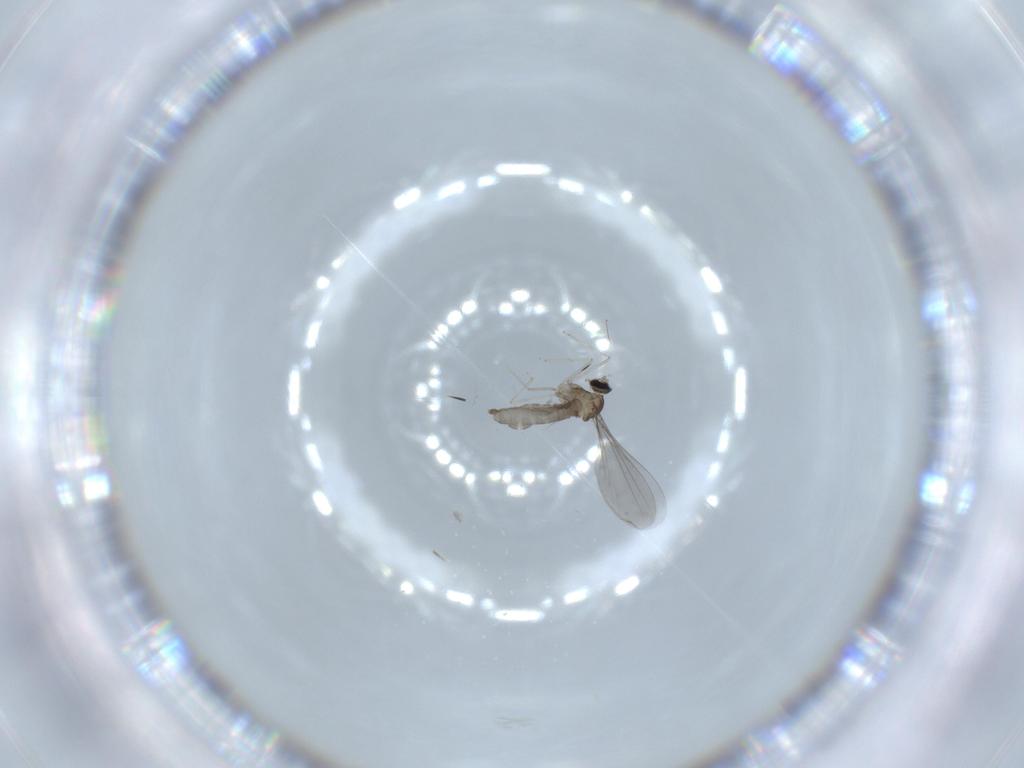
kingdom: Animalia
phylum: Arthropoda
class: Insecta
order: Diptera
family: Cecidomyiidae
